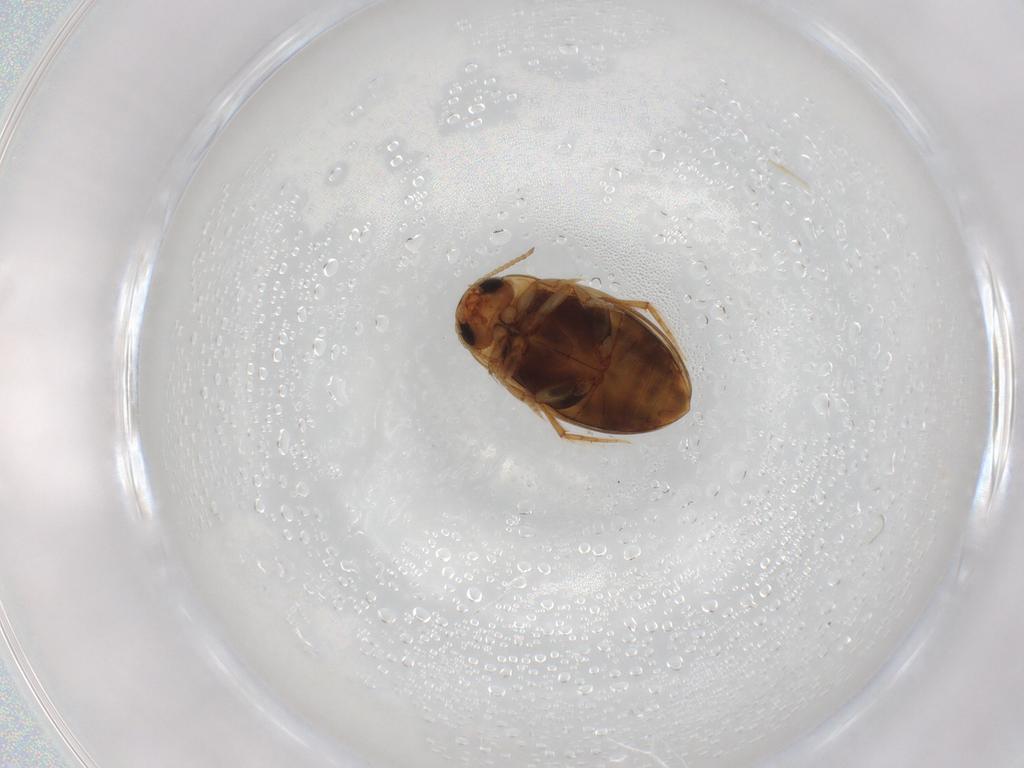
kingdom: Animalia
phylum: Arthropoda
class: Insecta
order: Coleoptera
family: Dytiscidae
